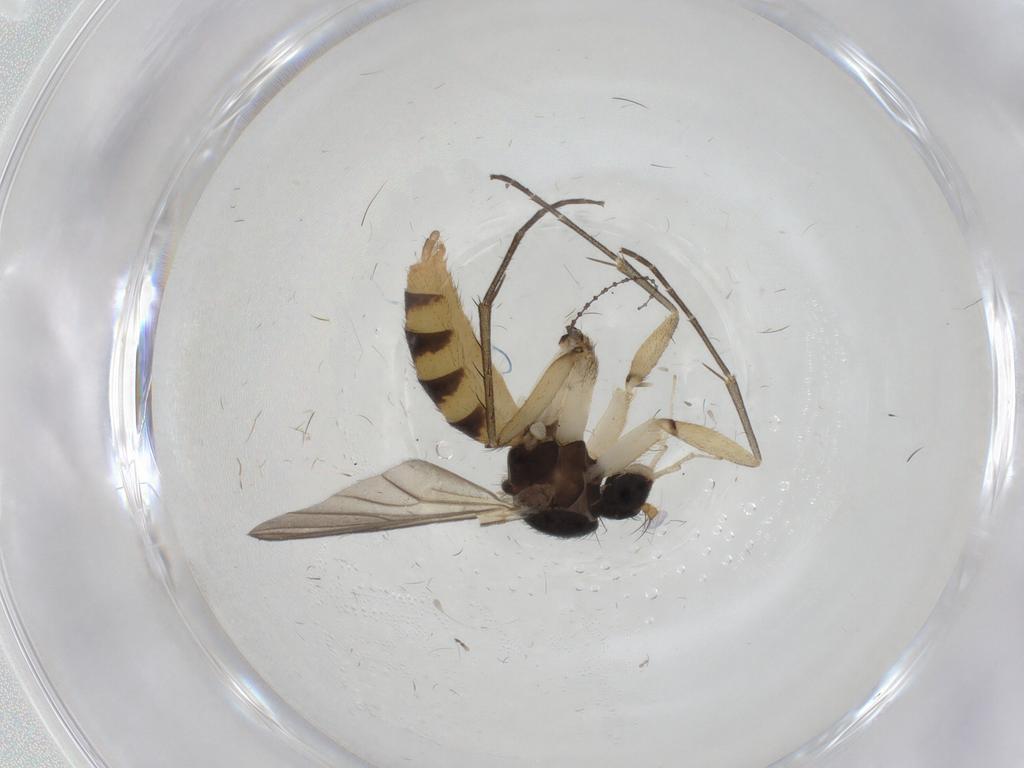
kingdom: Animalia
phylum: Arthropoda
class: Insecta
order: Diptera
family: Mycetophilidae
